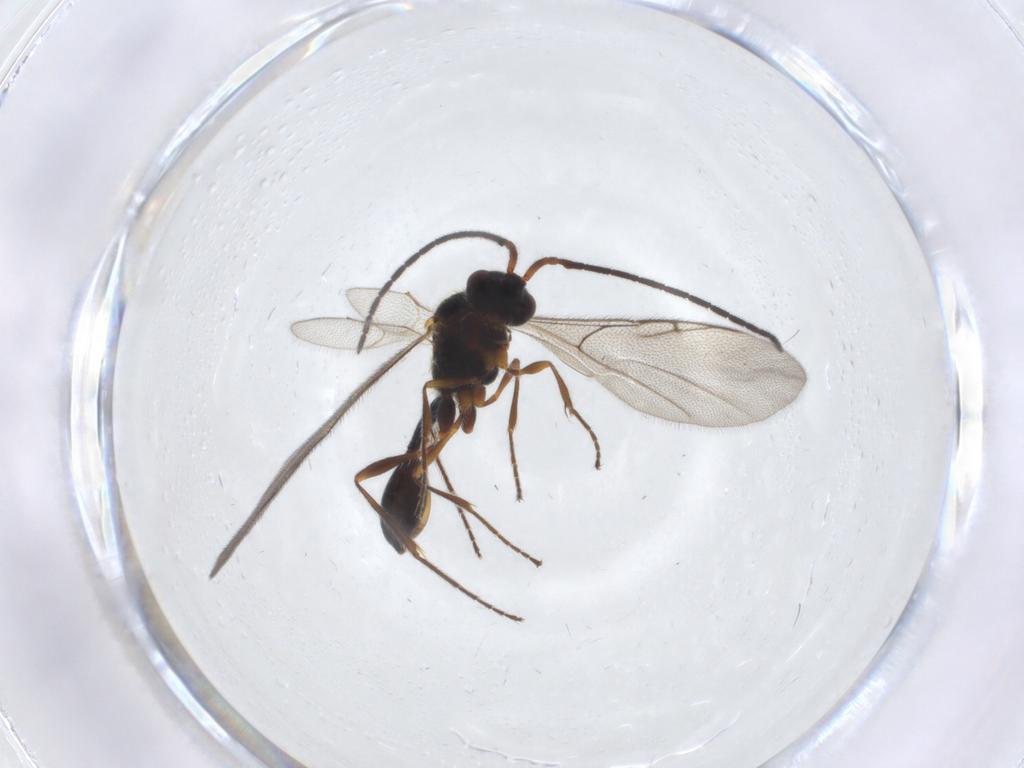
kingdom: Animalia
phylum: Arthropoda
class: Insecta
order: Hymenoptera
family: Diapriidae
